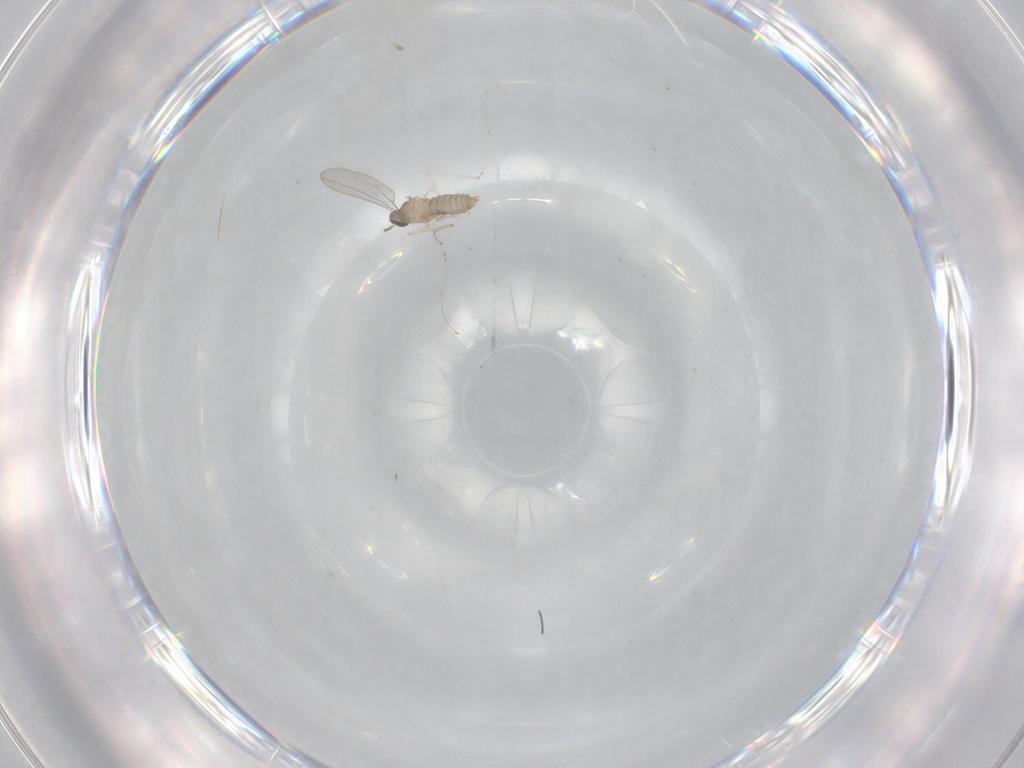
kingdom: Animalia
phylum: Arthropoda
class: Insecta
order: Diptera
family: Cecidomyiidae
